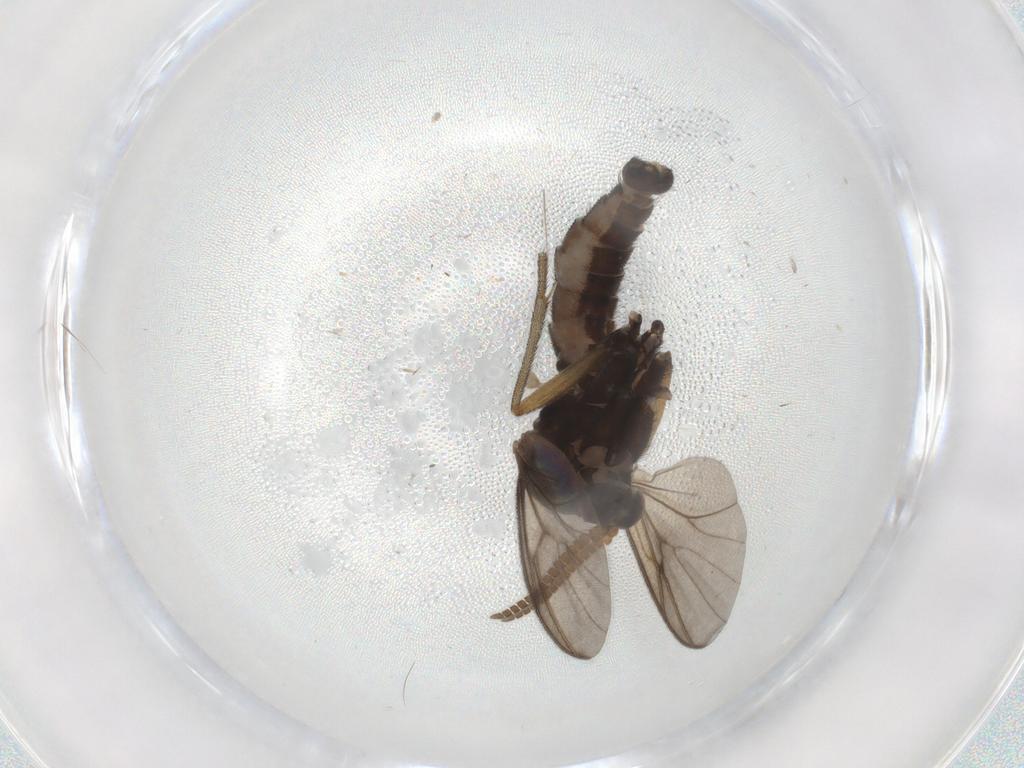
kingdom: Animalia
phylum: Arthropoda
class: Insecta
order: Diptera
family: Mycetophilidae
